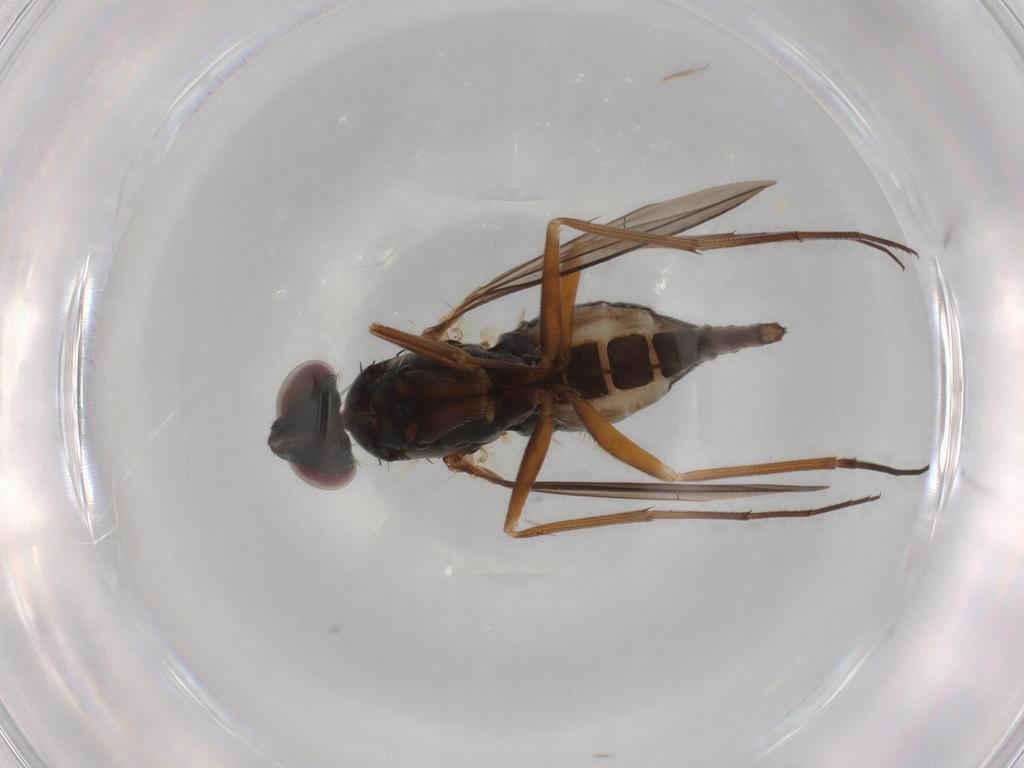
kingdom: Animalia
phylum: Arthropoda
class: Insecta
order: Diptera
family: Dolichopodidae
